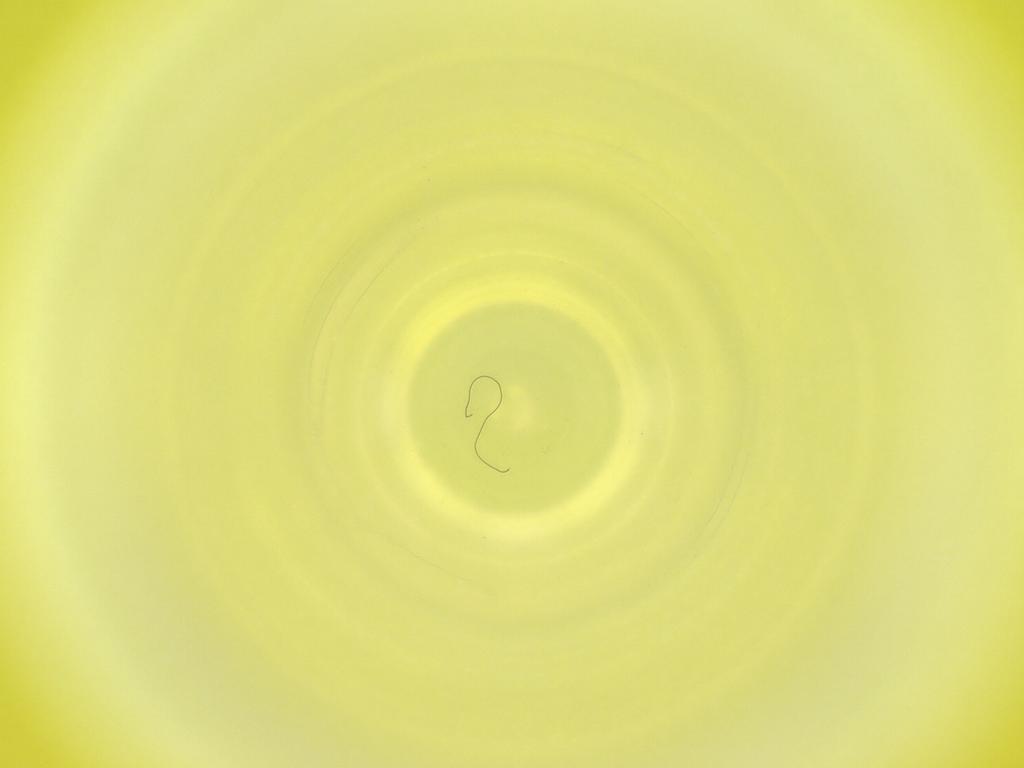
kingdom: Animalia
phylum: Arthropoda
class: Insecta
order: Diptera
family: Cecidomyiidae
